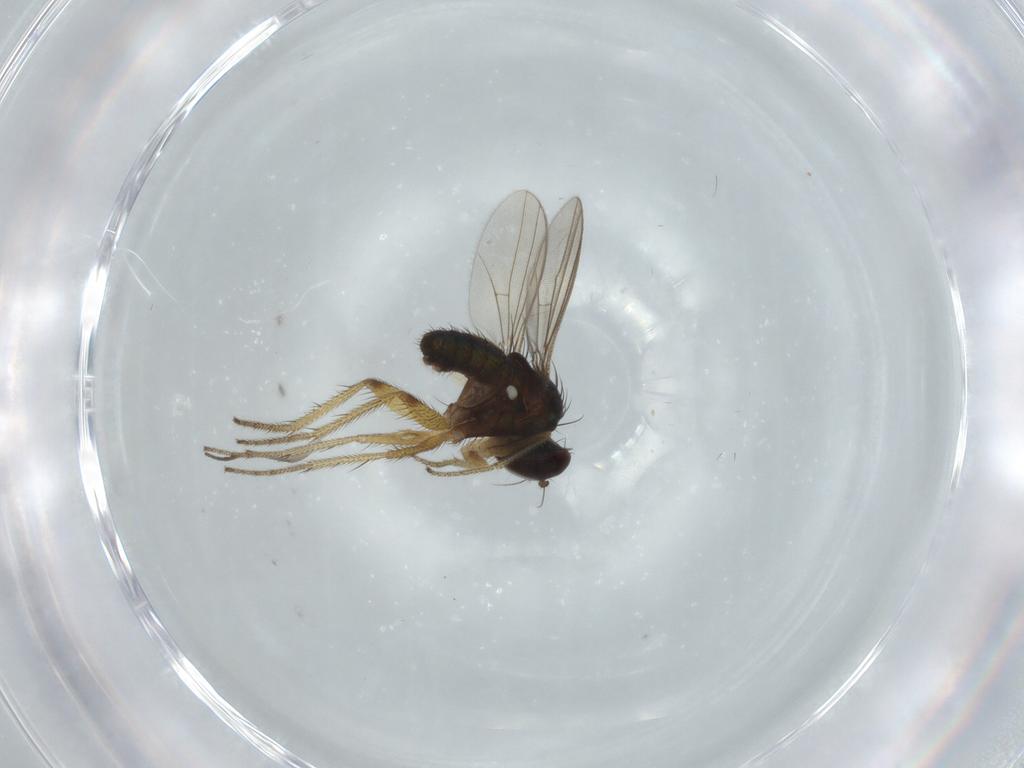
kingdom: Animalia
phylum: Arthropoda
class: Insecta
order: Diptera
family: Dolichopodidae
